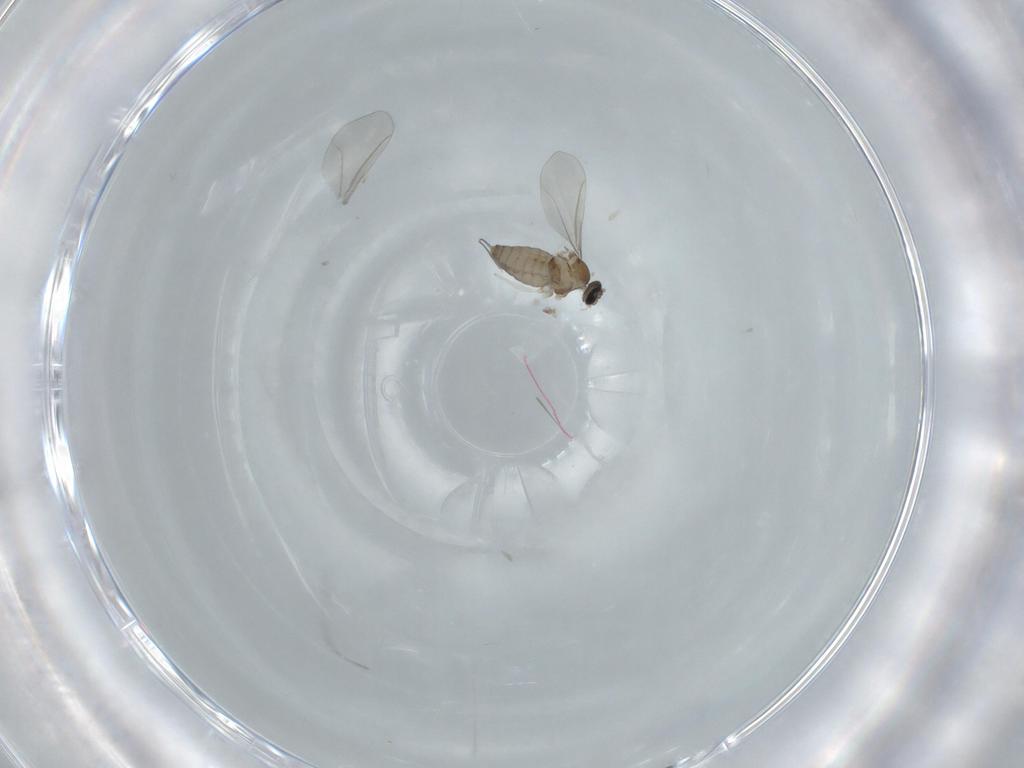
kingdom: Animalia
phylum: Arthropoda
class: Insecta
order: Diptera
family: Cecidomyiidae
